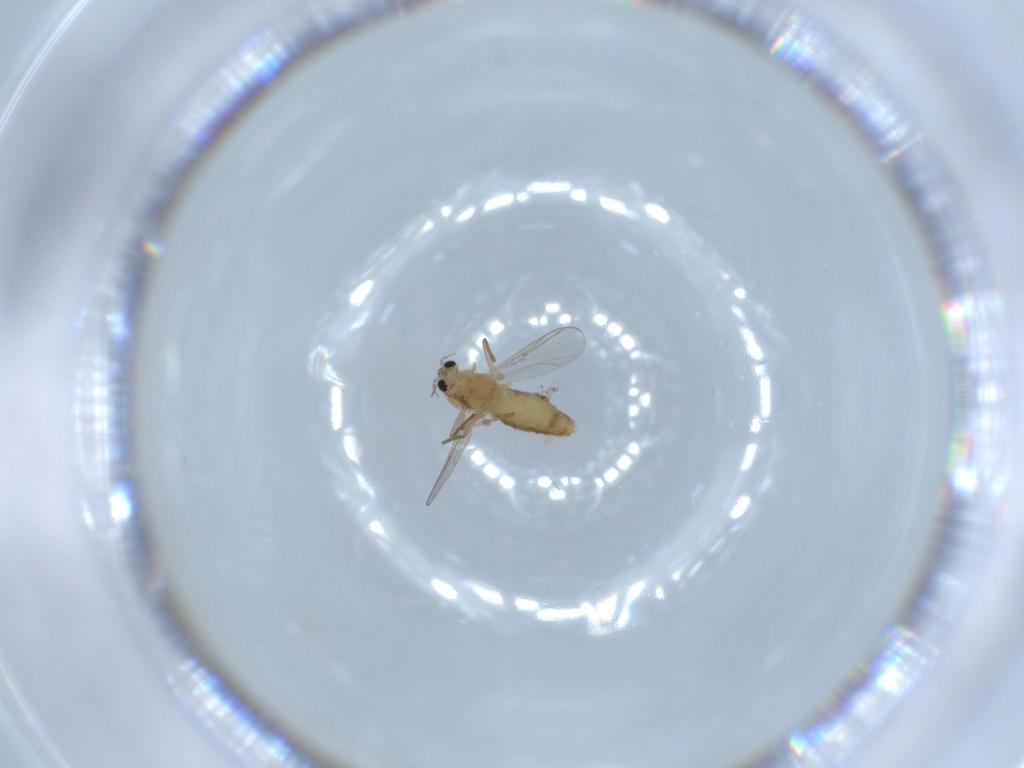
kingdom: Animalia
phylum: Arthropoda
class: Insecta
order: Diptera
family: Chironomidae
